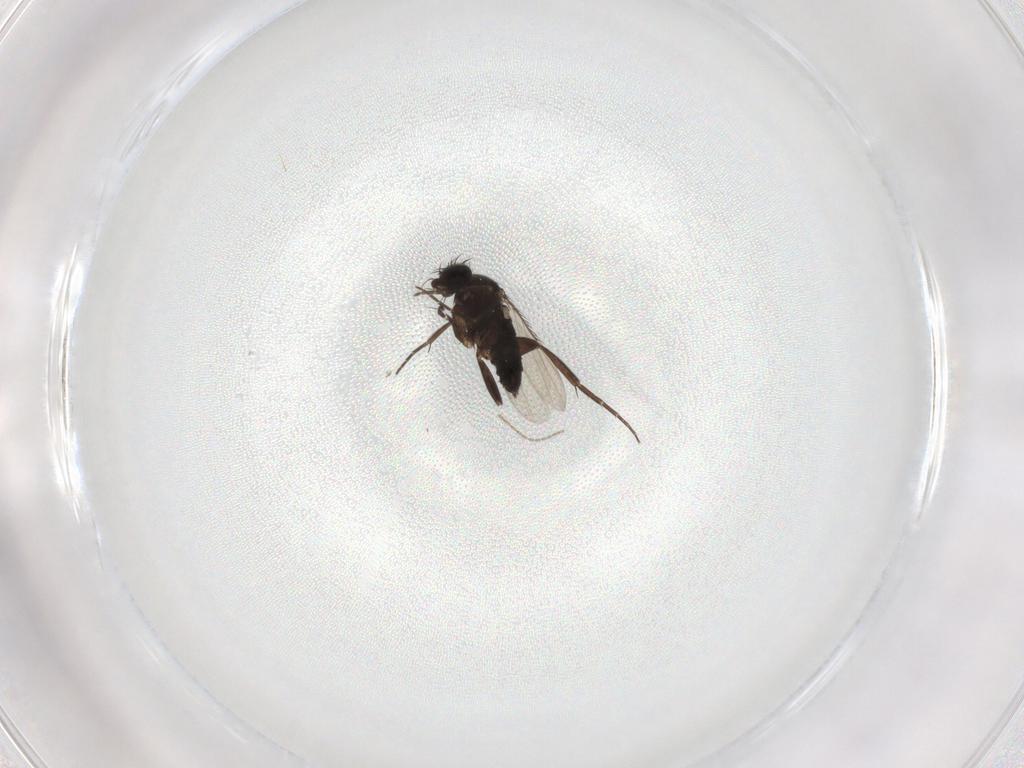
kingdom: Animalia
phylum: Arthropoda
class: Insecta
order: Diptera
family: Phoridae
